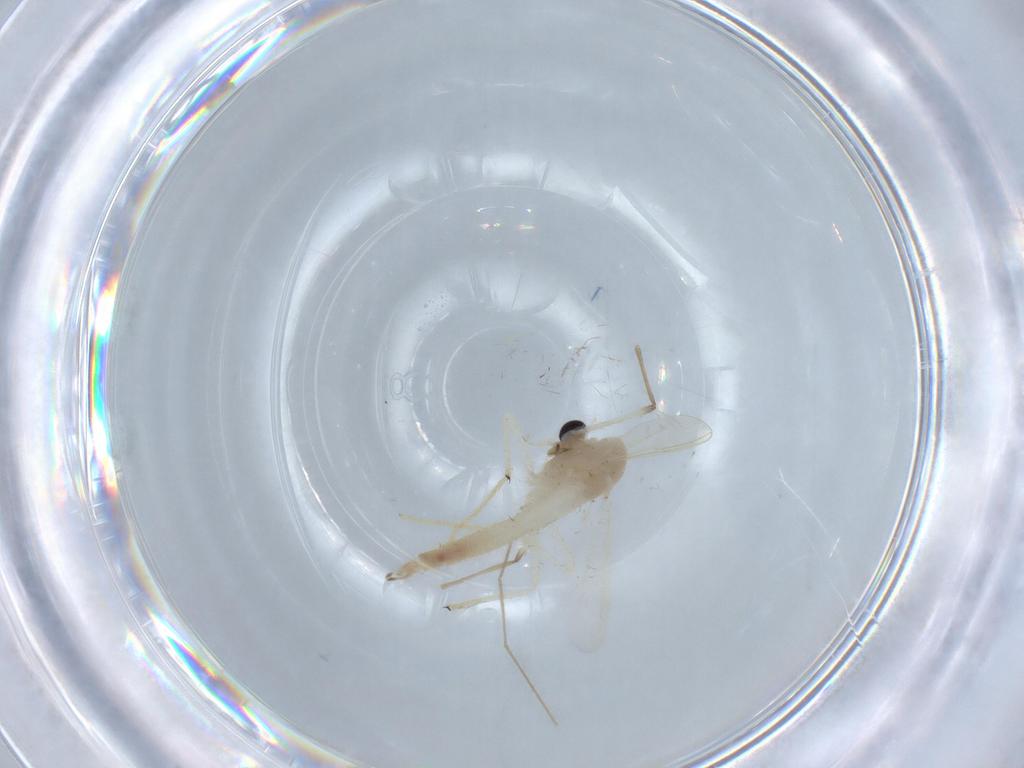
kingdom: Animalia
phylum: Arthropoda
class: Insecta
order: Diptera
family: Chironomidae
